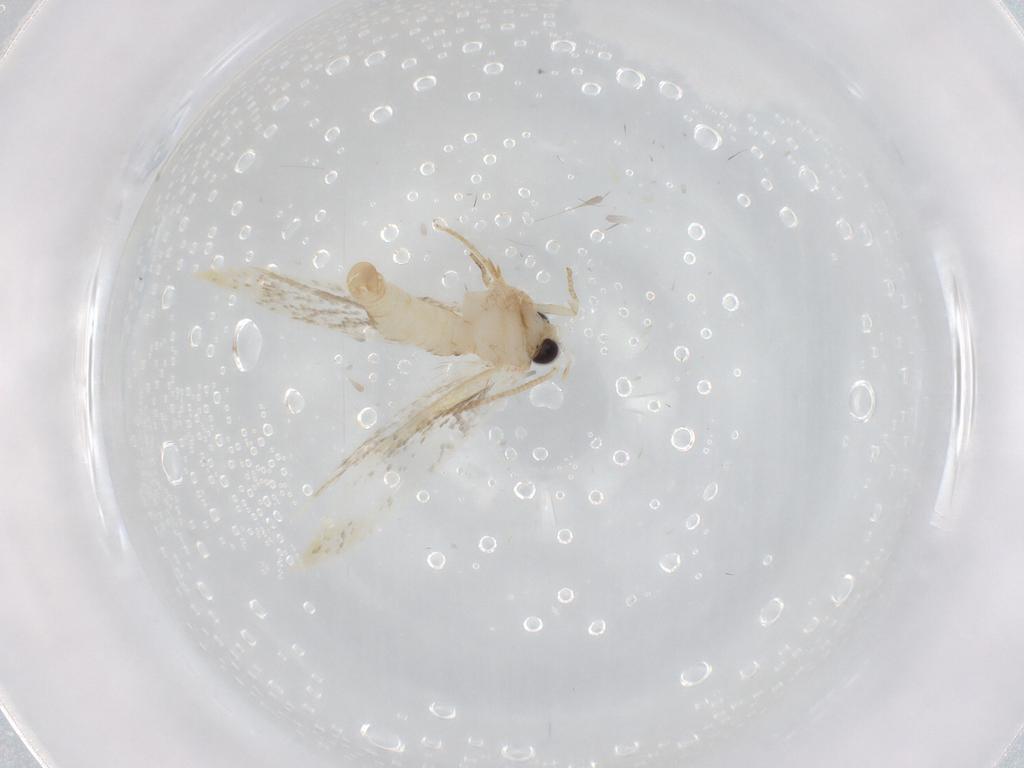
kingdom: Animalia
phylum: Arthropoda
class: Insecta
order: Lepidoptera
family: Tineidae
